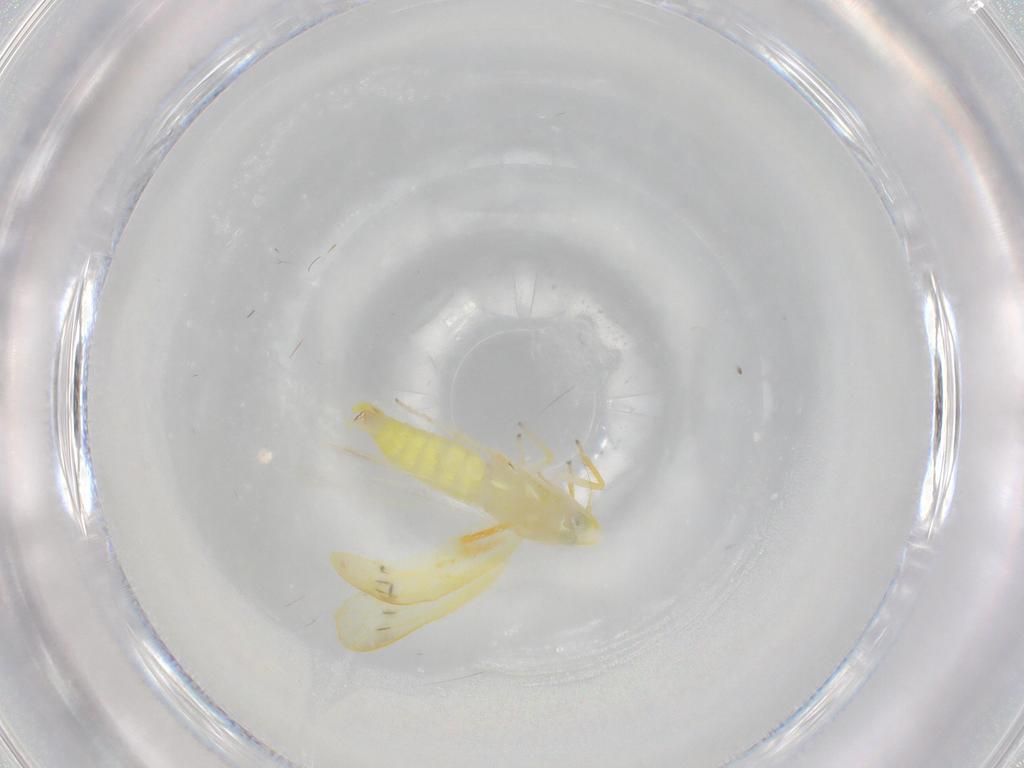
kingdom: Animalia
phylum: Arthropoda
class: Insecta
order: Hemiptera
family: Cicadellidae
